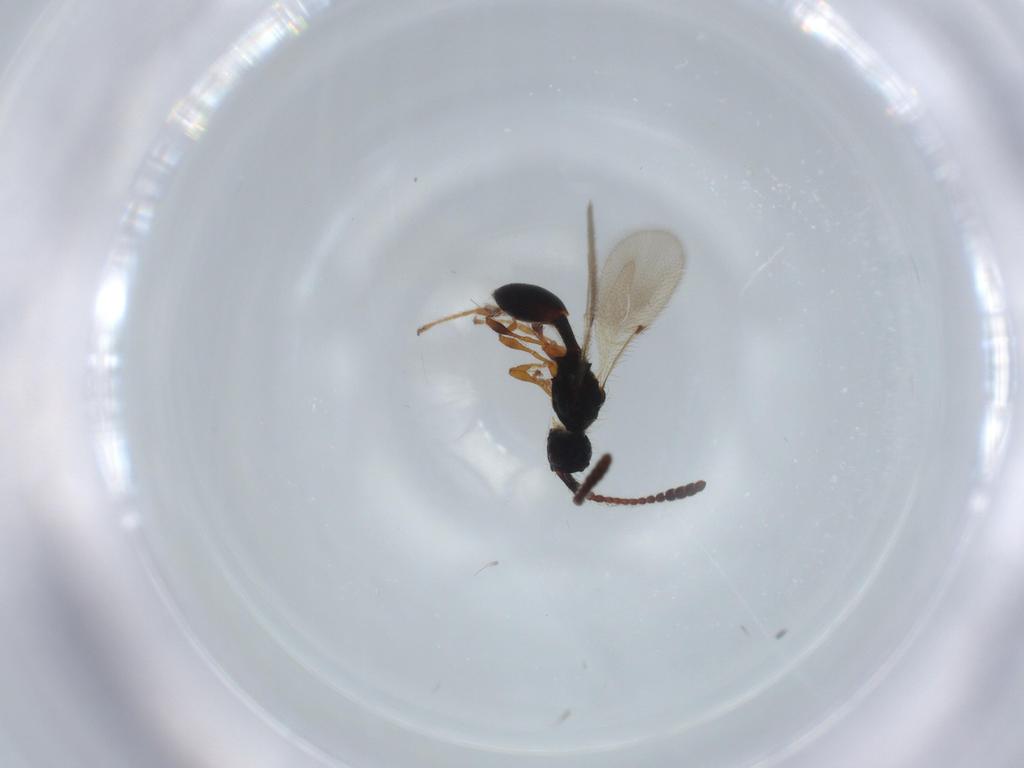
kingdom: Animalia
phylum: Arthropoda
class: Insecta
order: Hymenoptera
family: Diapriidae
